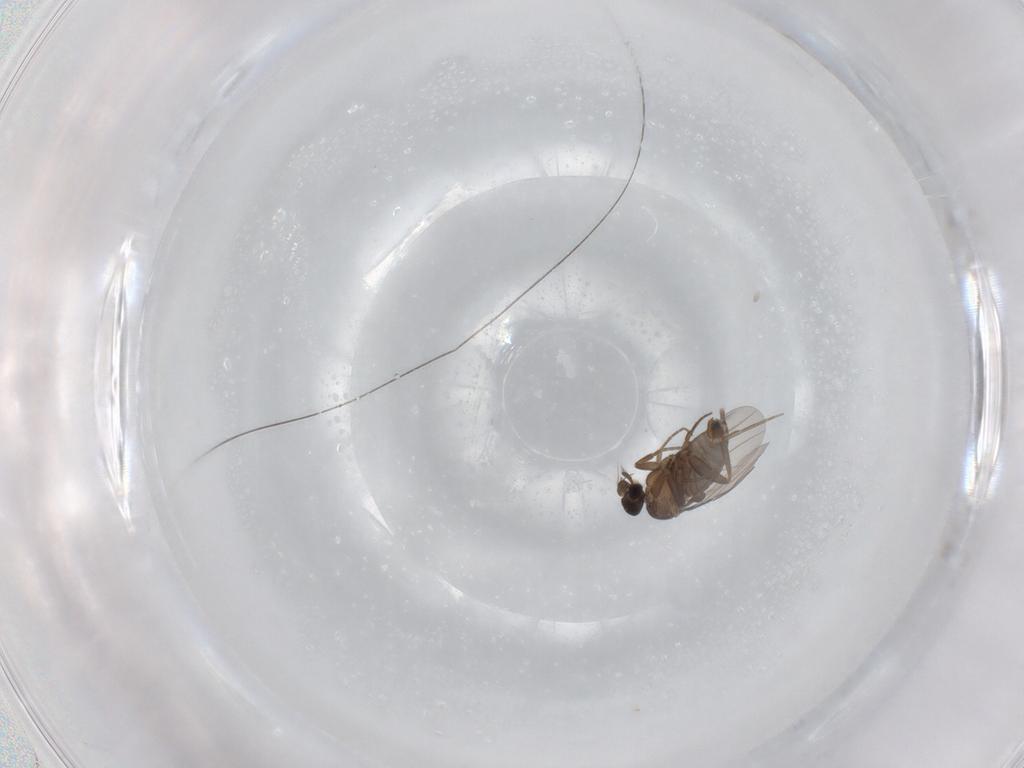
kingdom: Animalia
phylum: Arthropoda
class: Insecta
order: Diptera
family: Phoridae
